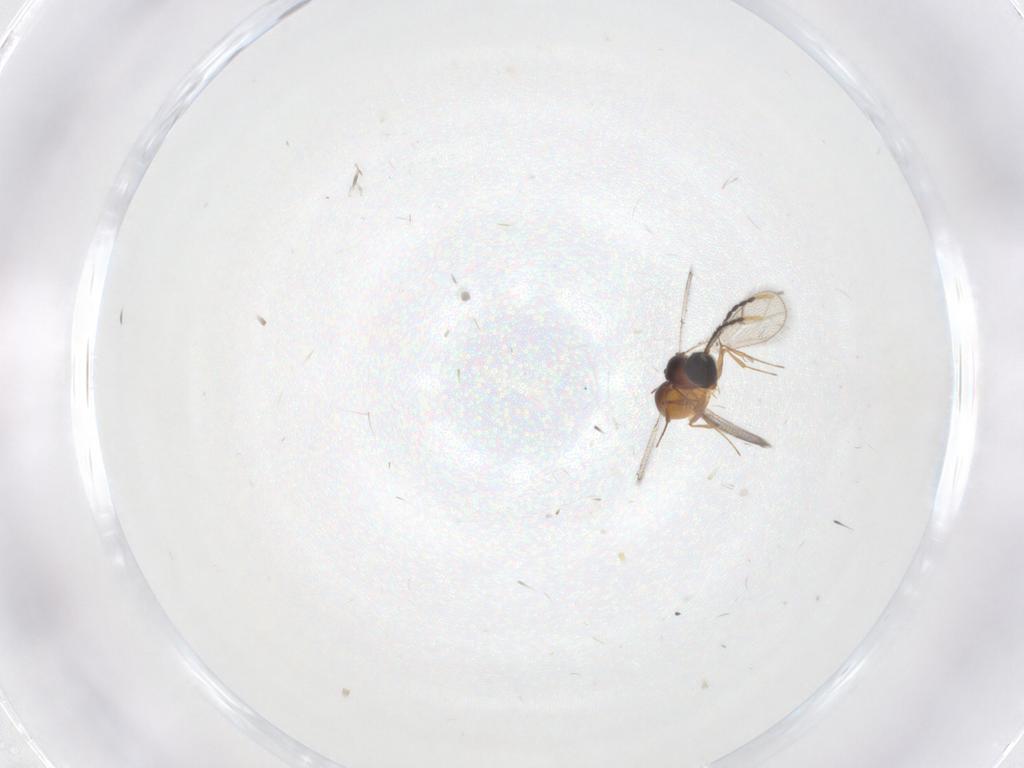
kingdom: Animalia
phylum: Arthropoda
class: Insecta
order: Hymenoptera
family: Figitidae
